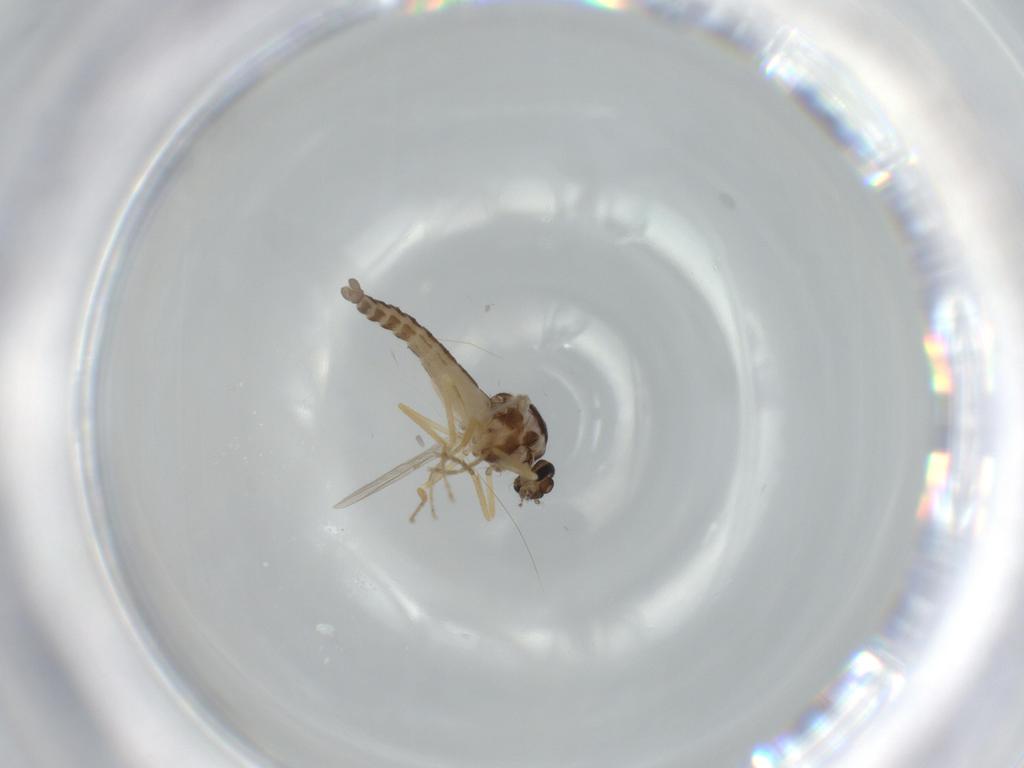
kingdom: Animalia
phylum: Arthropoda
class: Insecta
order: Diptera
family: Ceratopogonidae
